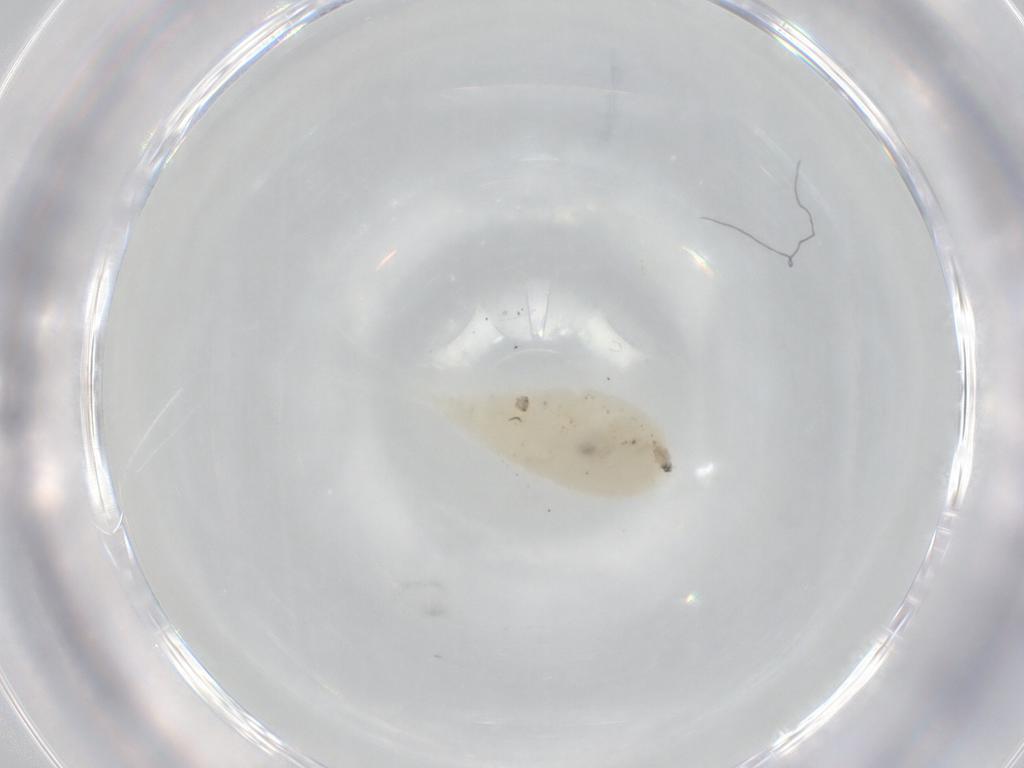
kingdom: Animalia
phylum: Arthropoda
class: Copepoda
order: Cyclopoida
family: Cyclopidae
